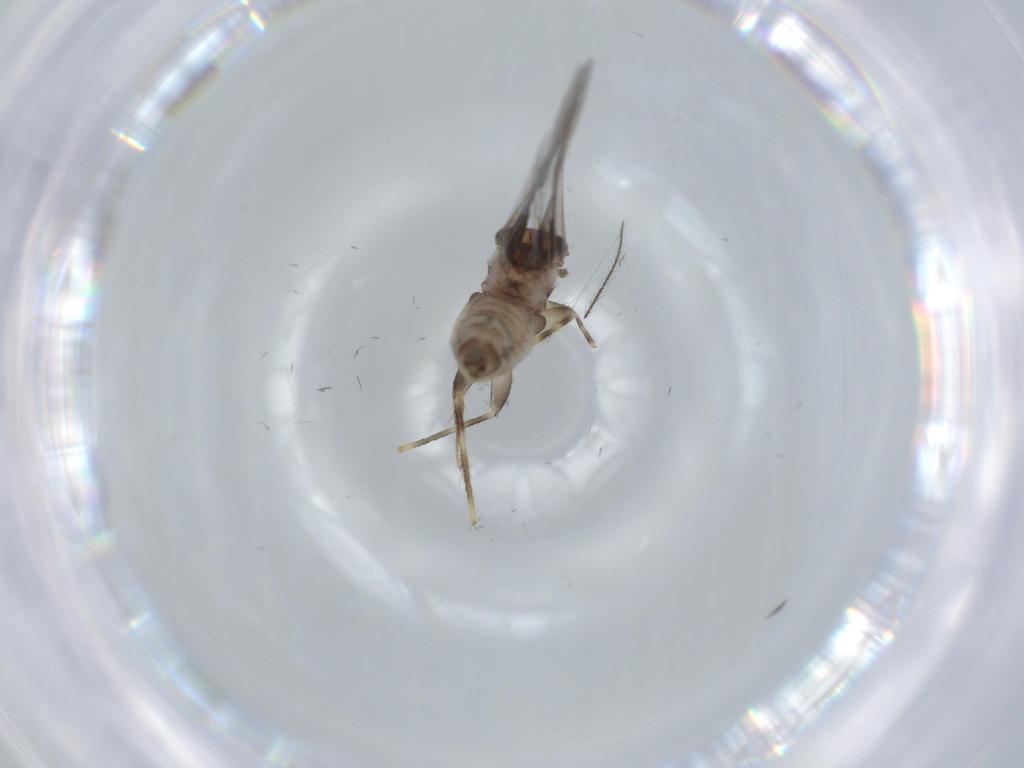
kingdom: Animalia
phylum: Arthropoda
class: Insecta
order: Psocodea
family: Lepidopsocidae
